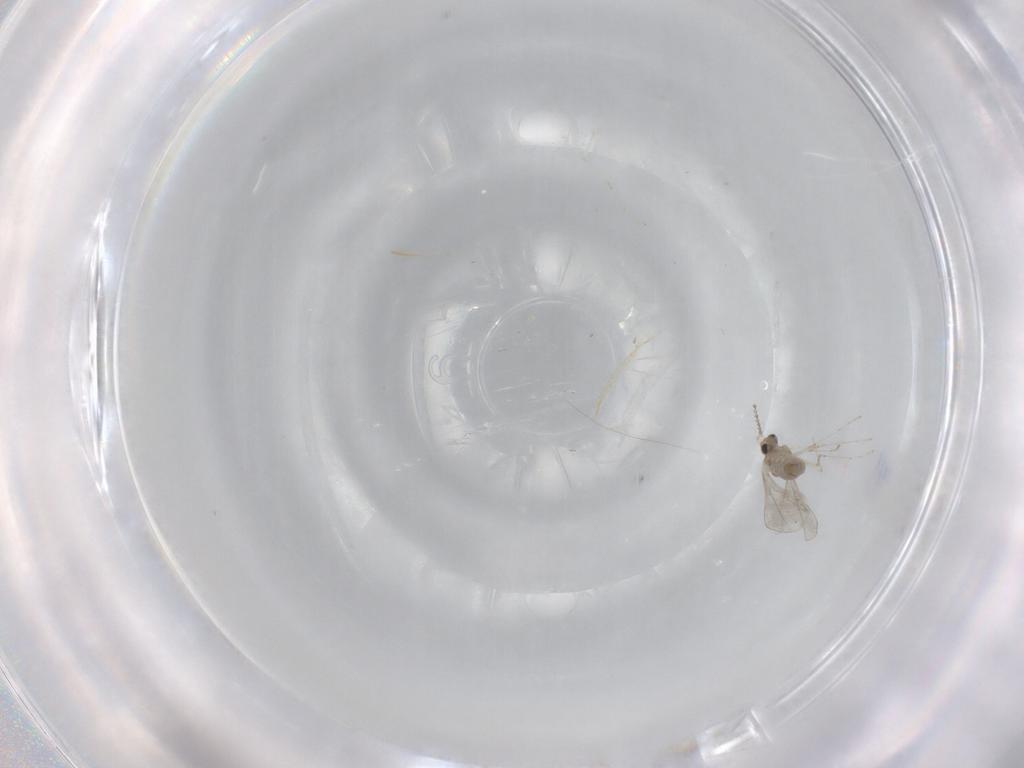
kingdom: Animalia
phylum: Arthropoda
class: Insecta
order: Diptera
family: Cecidomyiidae
